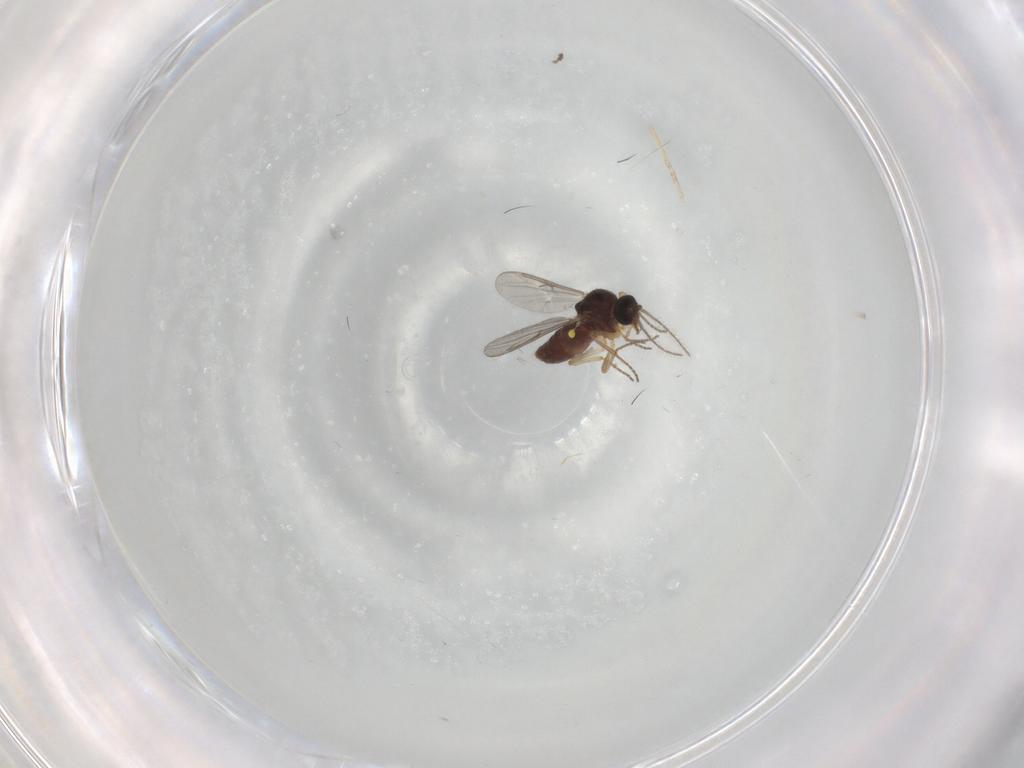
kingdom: Animalia
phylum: Arthropoda
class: Insecta
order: Diptera
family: Ceratopogonidae
